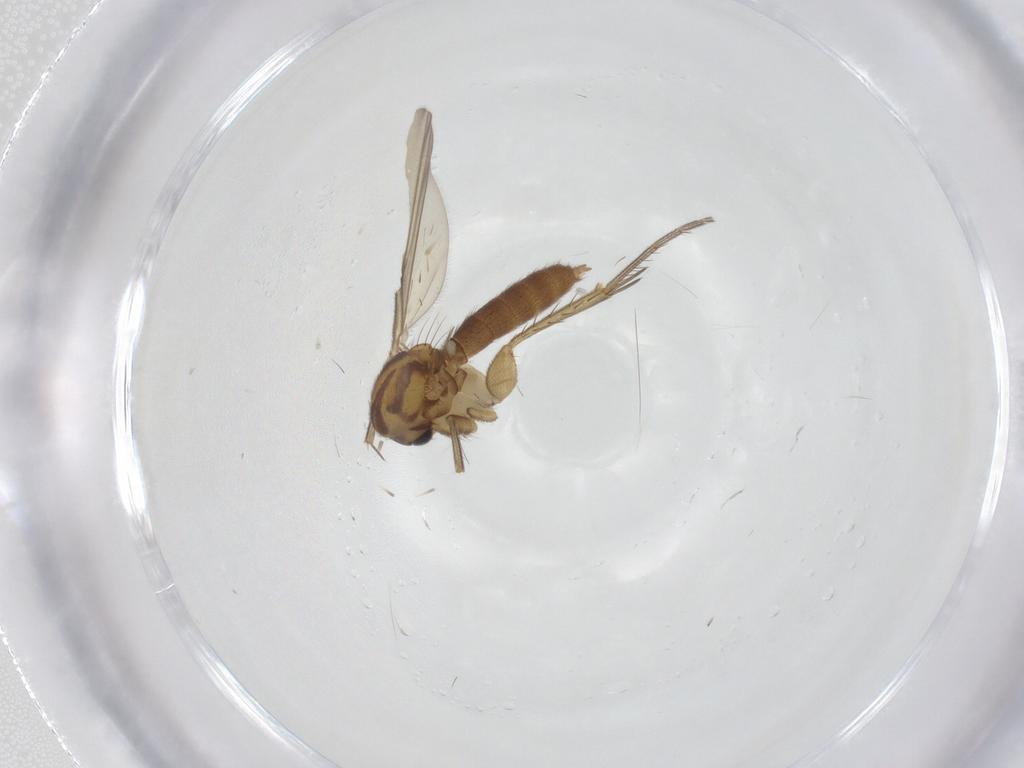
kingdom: Animalia
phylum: Arthropoda
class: Insecta
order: Diptera
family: Mycetophilidae
